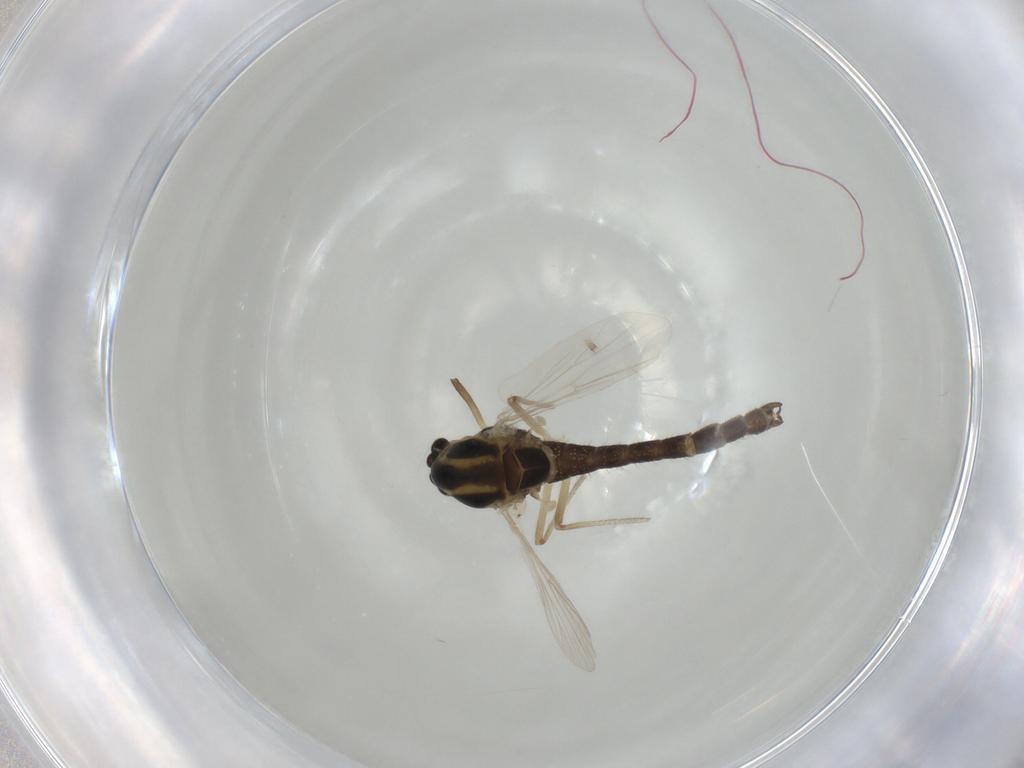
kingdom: Animalia
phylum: Arthropoda
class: Insecta
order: Diptera
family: Chironomidae
